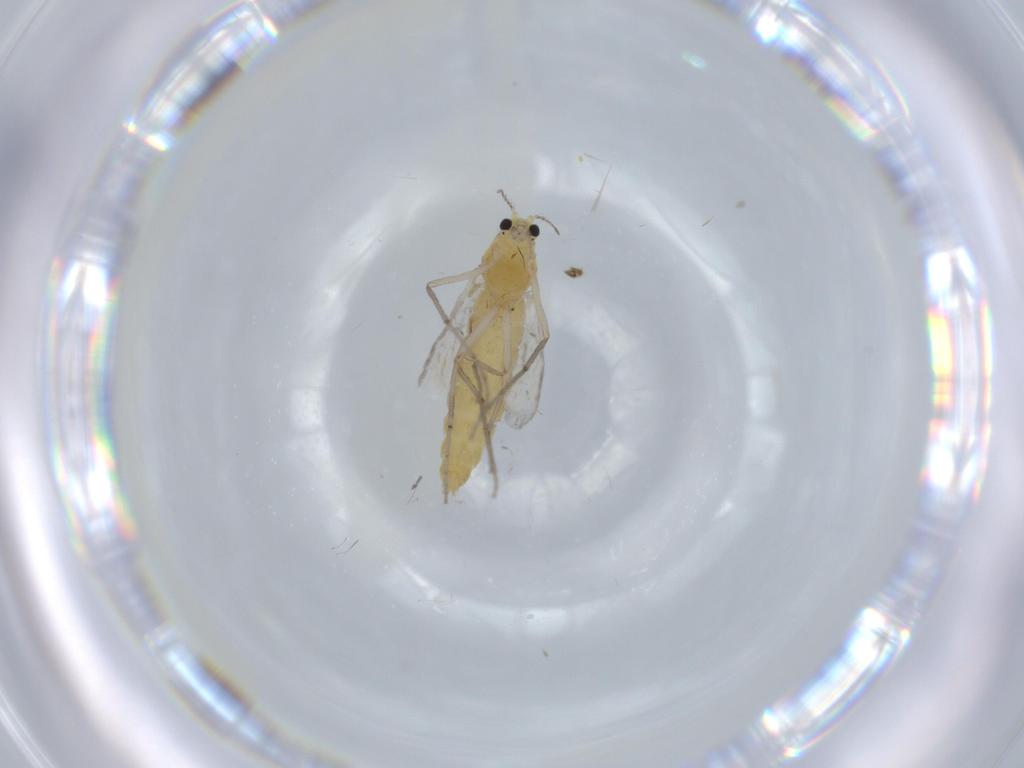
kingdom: Animalia
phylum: Arthropoda
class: Insecta
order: Diptera
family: Chironomidae
